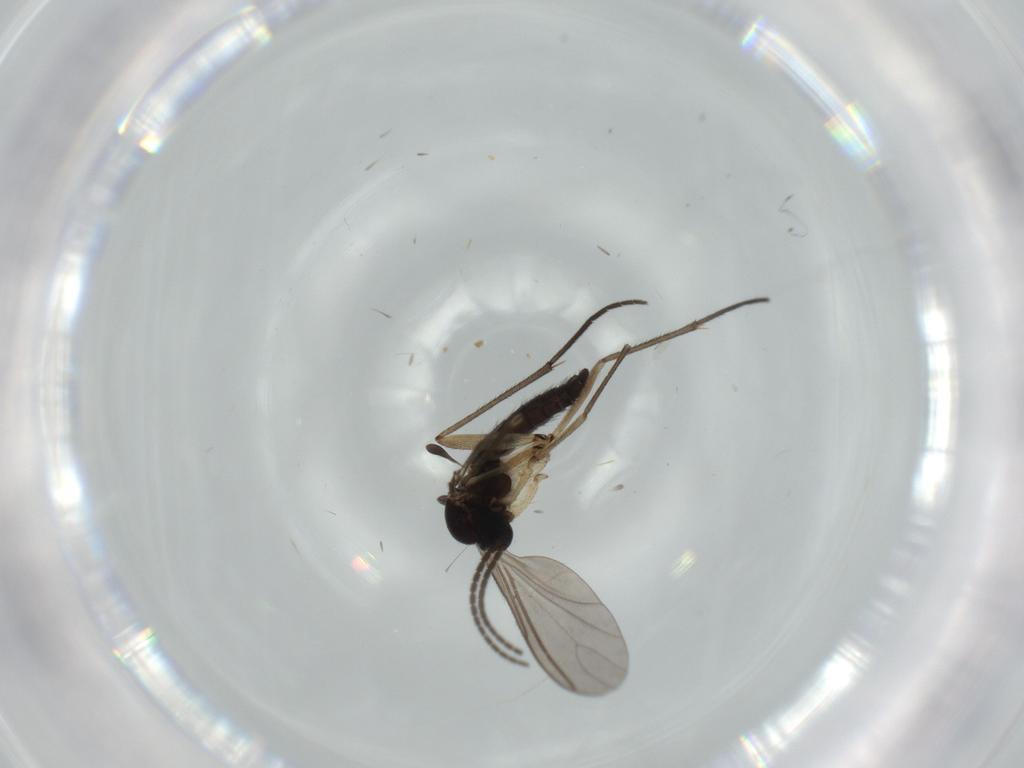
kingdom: Animalia
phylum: Arthropoda
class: Insecta
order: Diptera
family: Sciaridae
